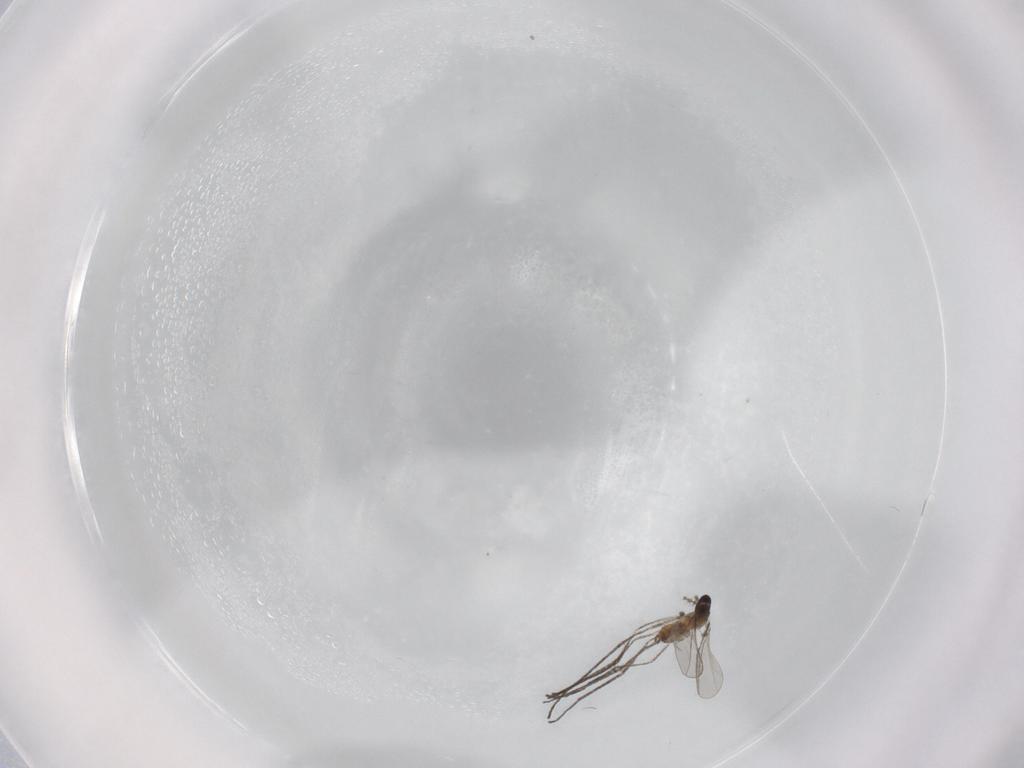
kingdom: Animalia
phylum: Arthropoda
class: Insecta
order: Diptera
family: Cecidomyiidae
